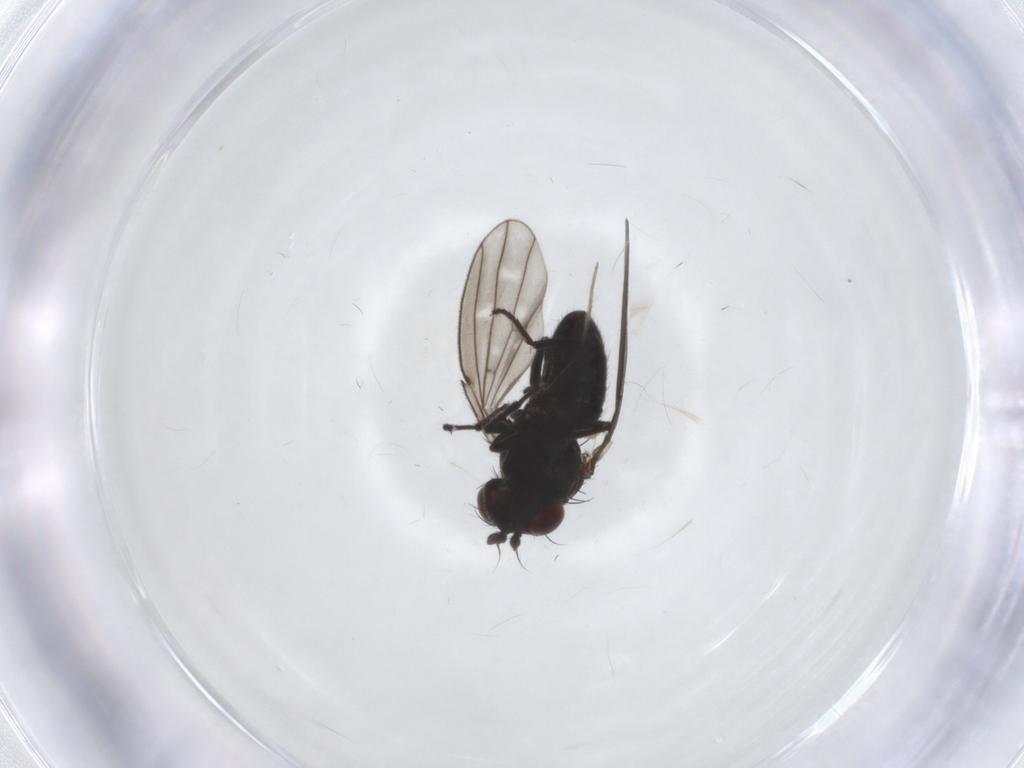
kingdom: Animalia
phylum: Arthropoda
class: Insecta
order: Diptera
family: Ephydridae
